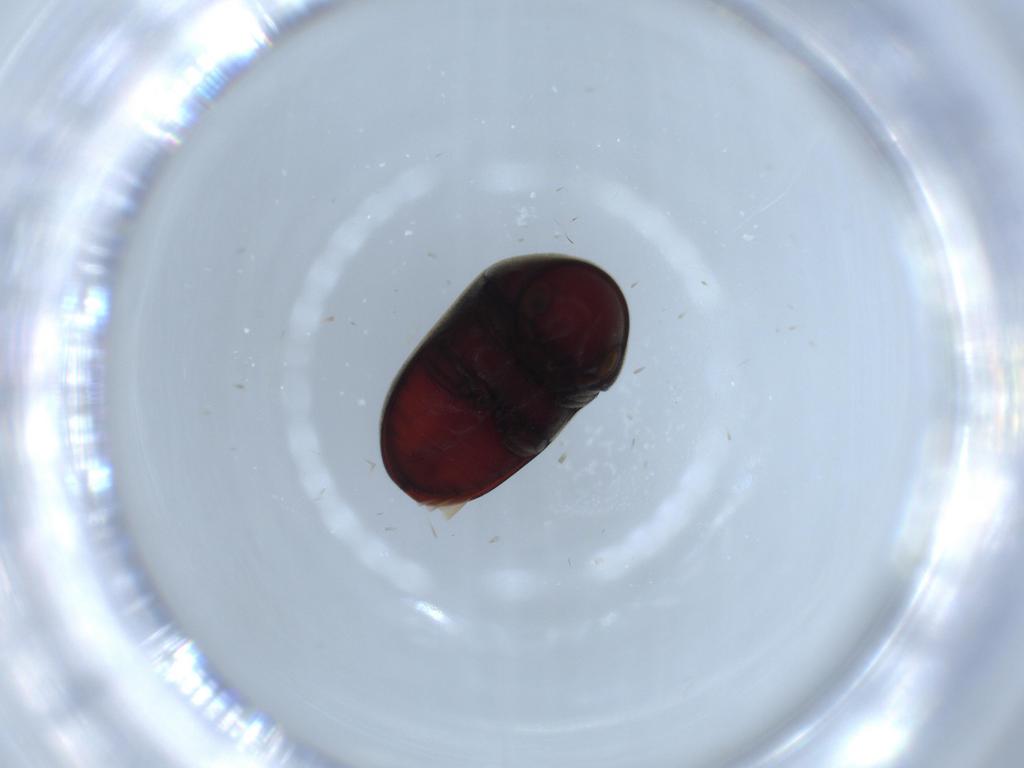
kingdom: Animalia
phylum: Arthropoda
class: Insecta
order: Coleoptera
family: Ptinidae
